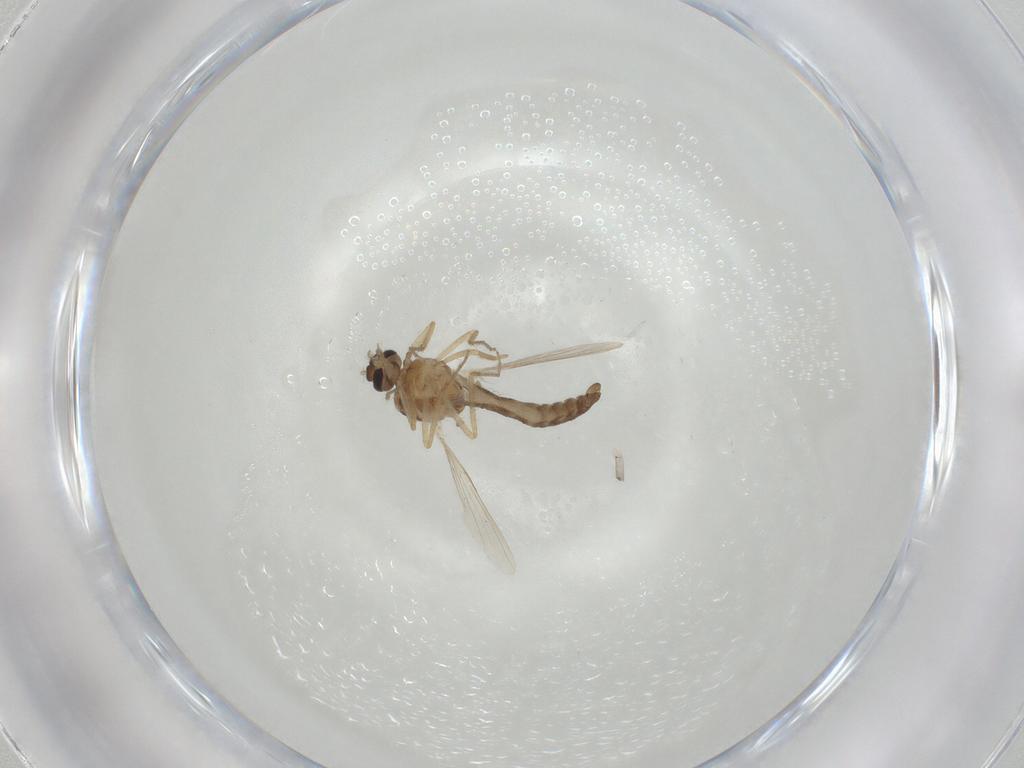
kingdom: Animalia
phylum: Arthropoda
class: Insecta
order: Diptera
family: Ceratopogonidae
